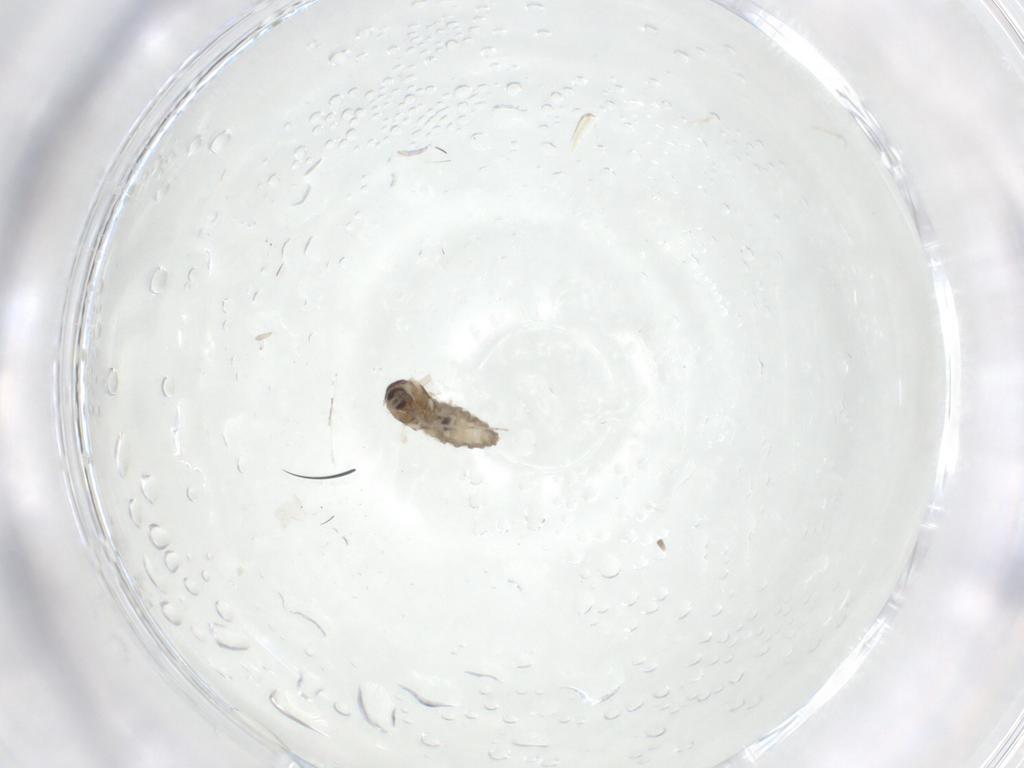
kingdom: Animalia
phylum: Arthropoda
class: Insecta
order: Diptera
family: Cecidomyiidae
